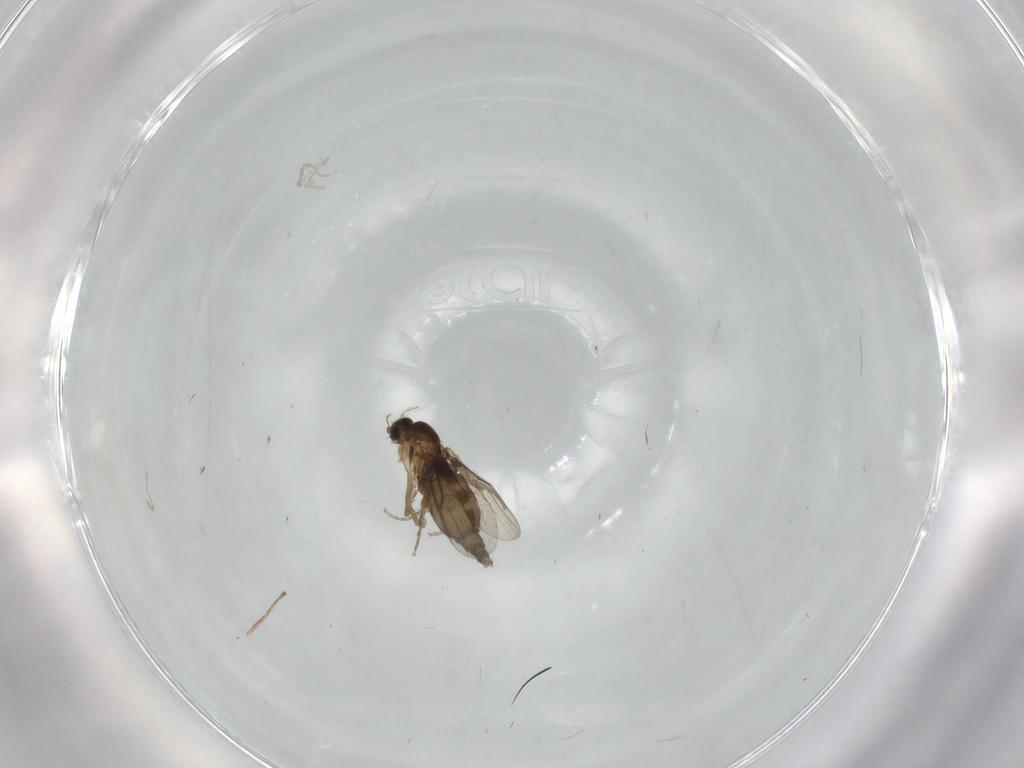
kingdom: Animalia
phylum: Arthropoda
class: Insecta
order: Diptera
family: Phoridae
